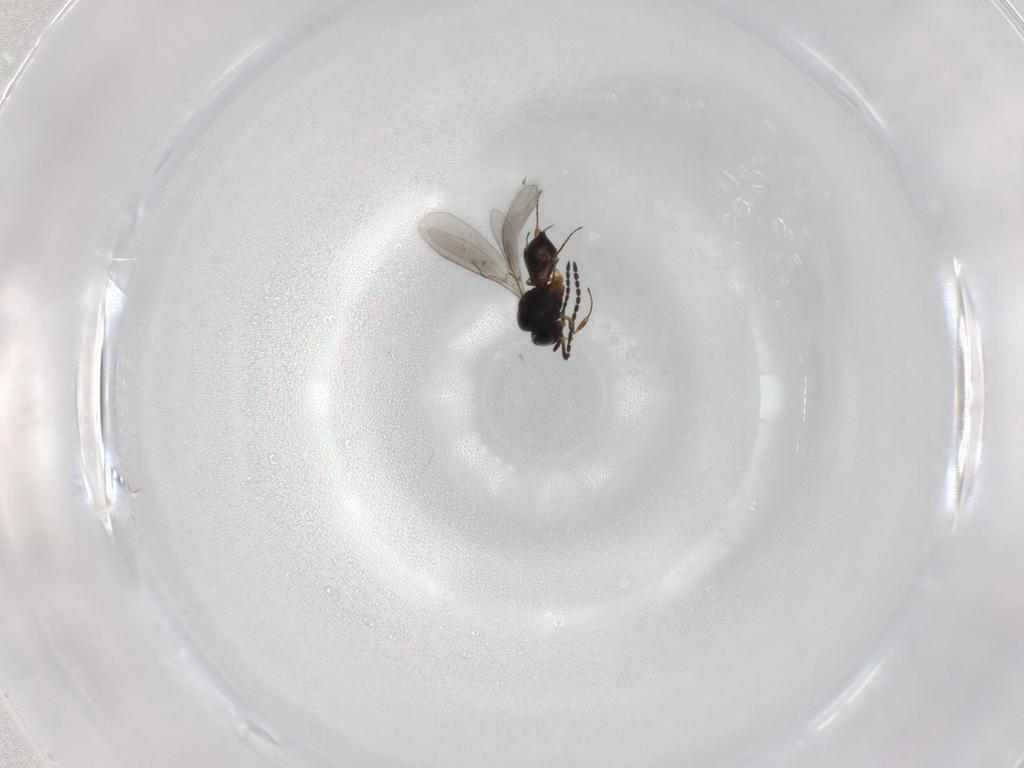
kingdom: Animalia
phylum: Arthropoda
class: Insecta
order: Hymenoptera
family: Scelionidae
